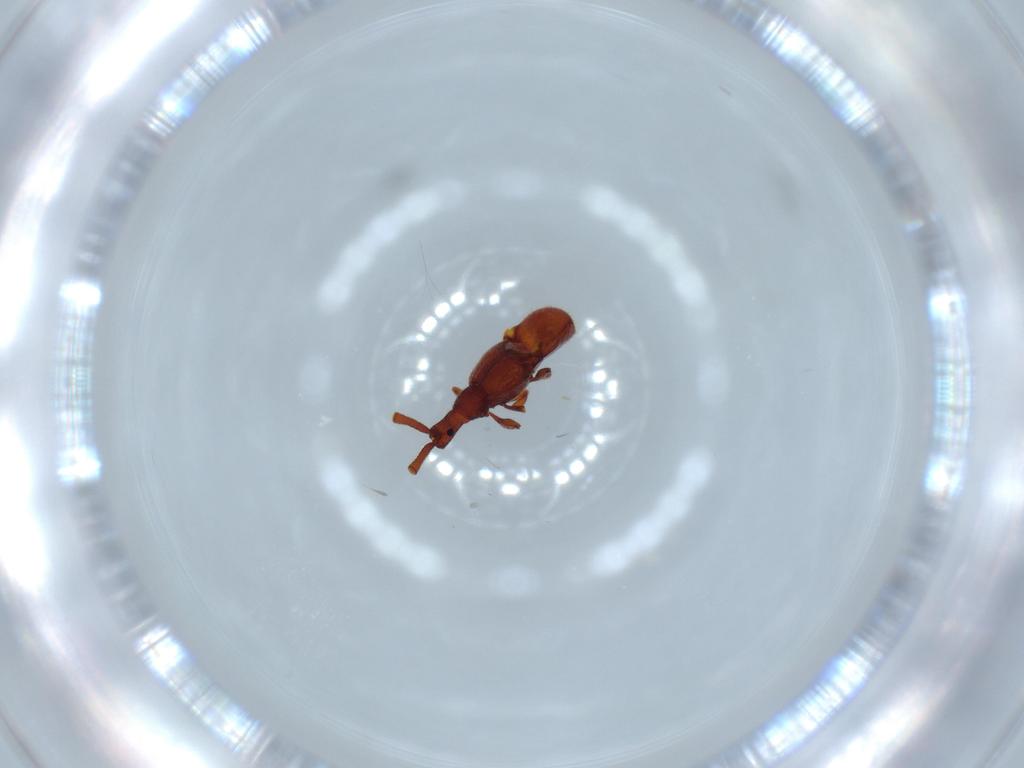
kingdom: Animalia
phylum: Arthropoda
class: Insecta
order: Coleoptera
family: Staphylinidae
